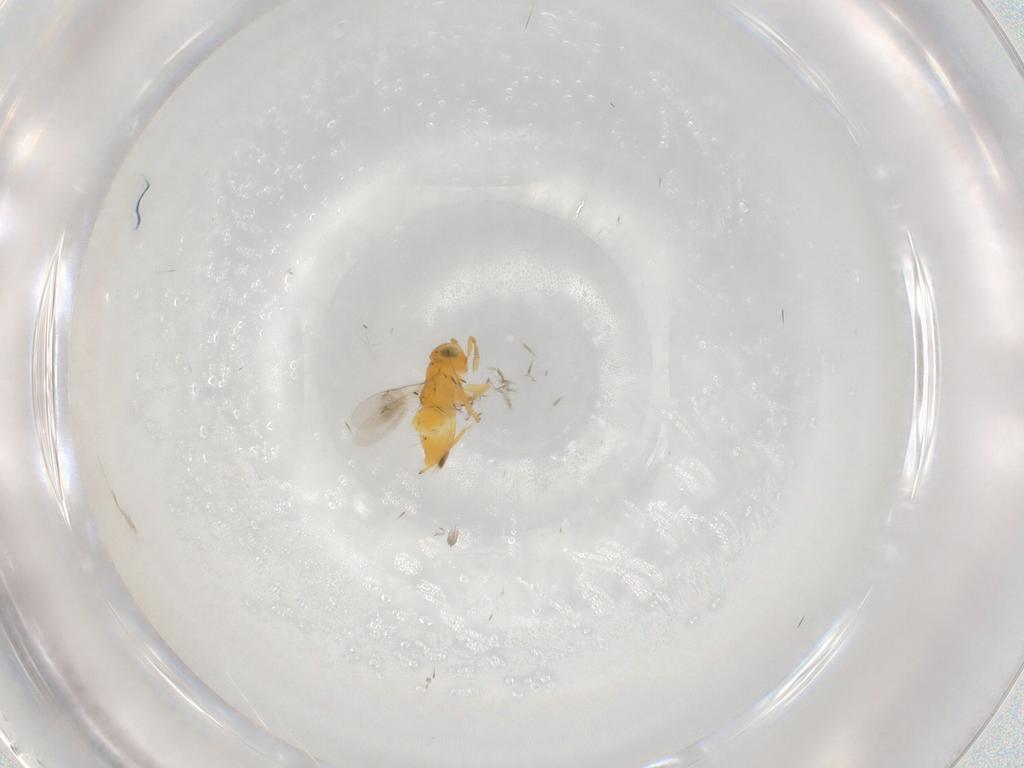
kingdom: Animalia
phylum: Arthropoda
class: Insecta
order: Hymenoptera
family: Encyrtidae
